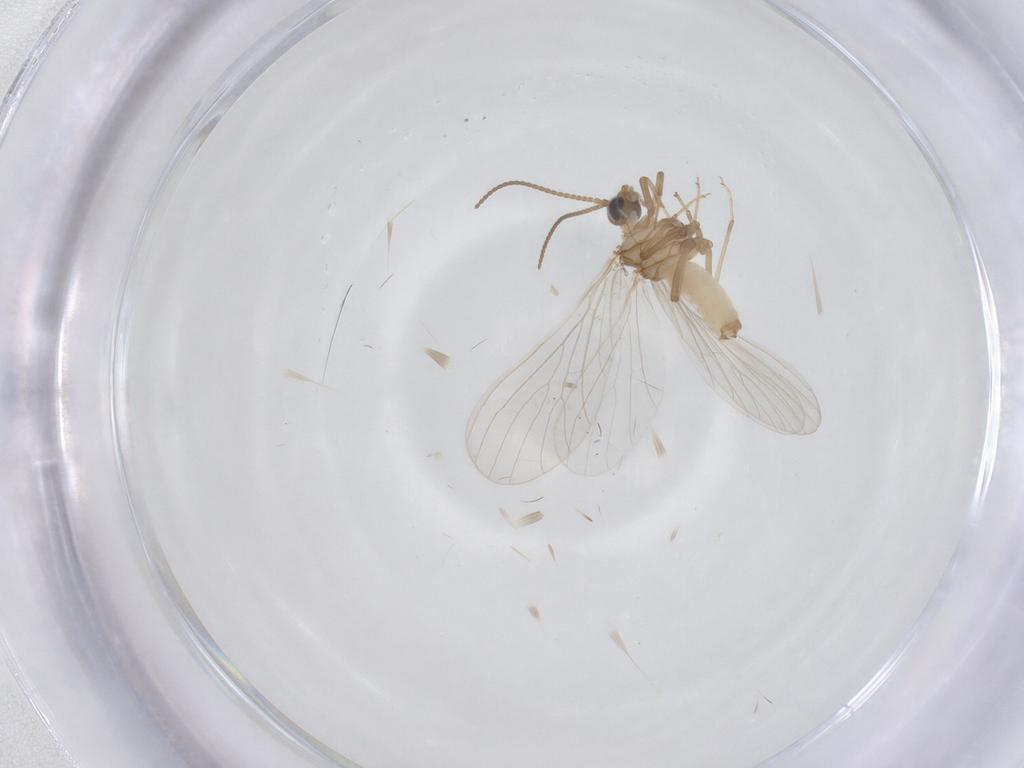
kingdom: Animalia
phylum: Arthropoda
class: Insecta
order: Neuroptera
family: Coniopterygidae
